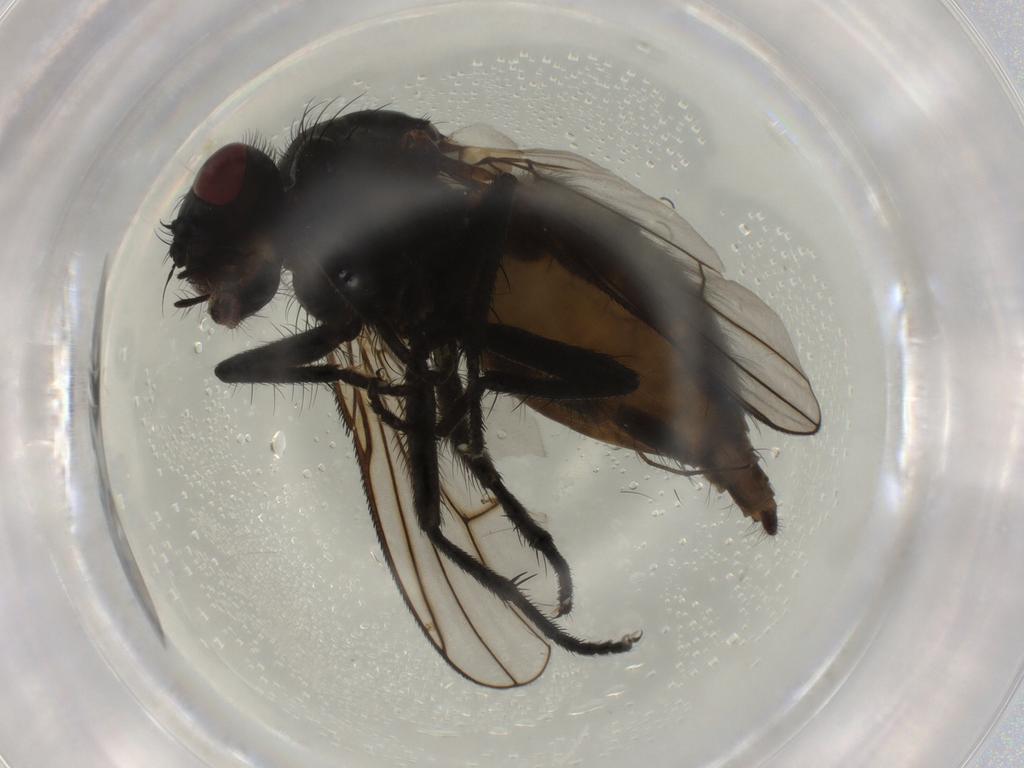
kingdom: Animalia
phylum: Arthropoda
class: Insecta
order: Diptera
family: Muscidae
